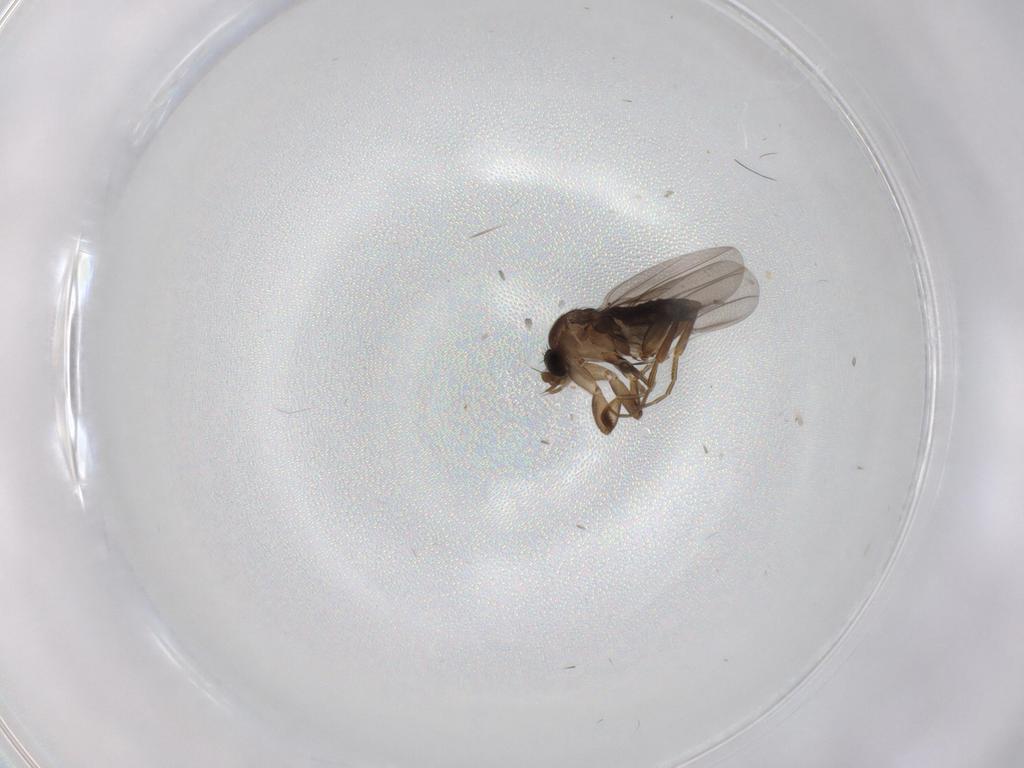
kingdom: Animalia
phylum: Arthropoda
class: Insecta
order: Diptera
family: Phoridae
